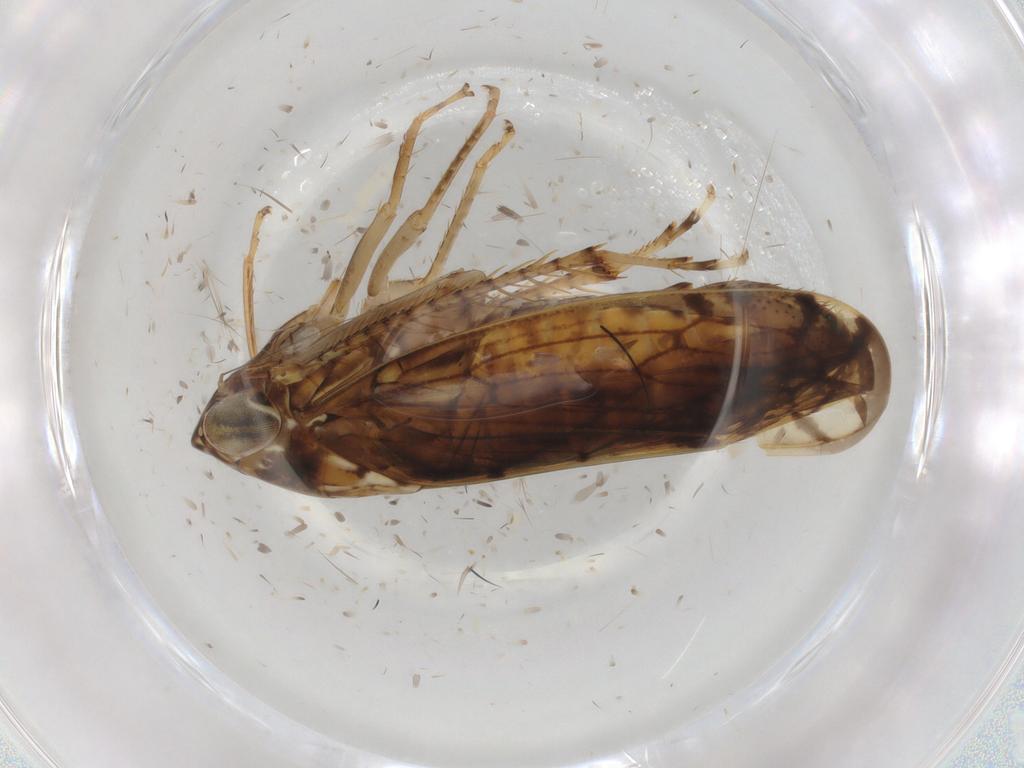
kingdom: Animalia
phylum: Arthropoda
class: Insecta
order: Hemiptera
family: Cicadellidae
